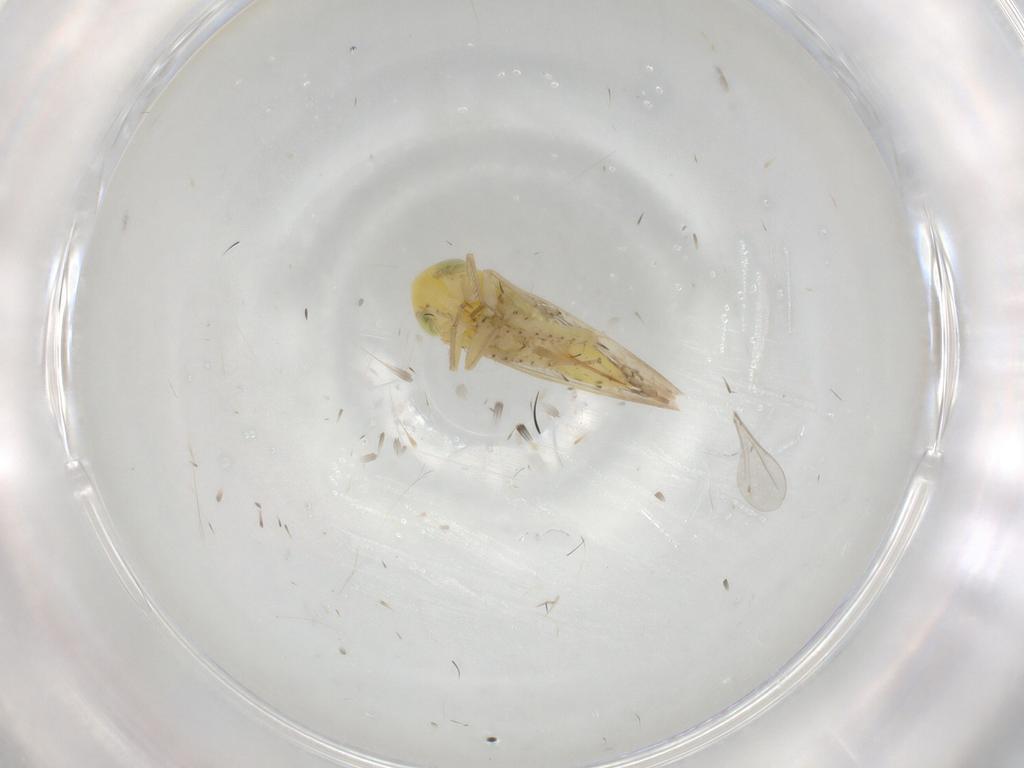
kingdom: Animalia
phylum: Arthropoda
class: Insecta
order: Hemiptera
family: Cicadellidae
